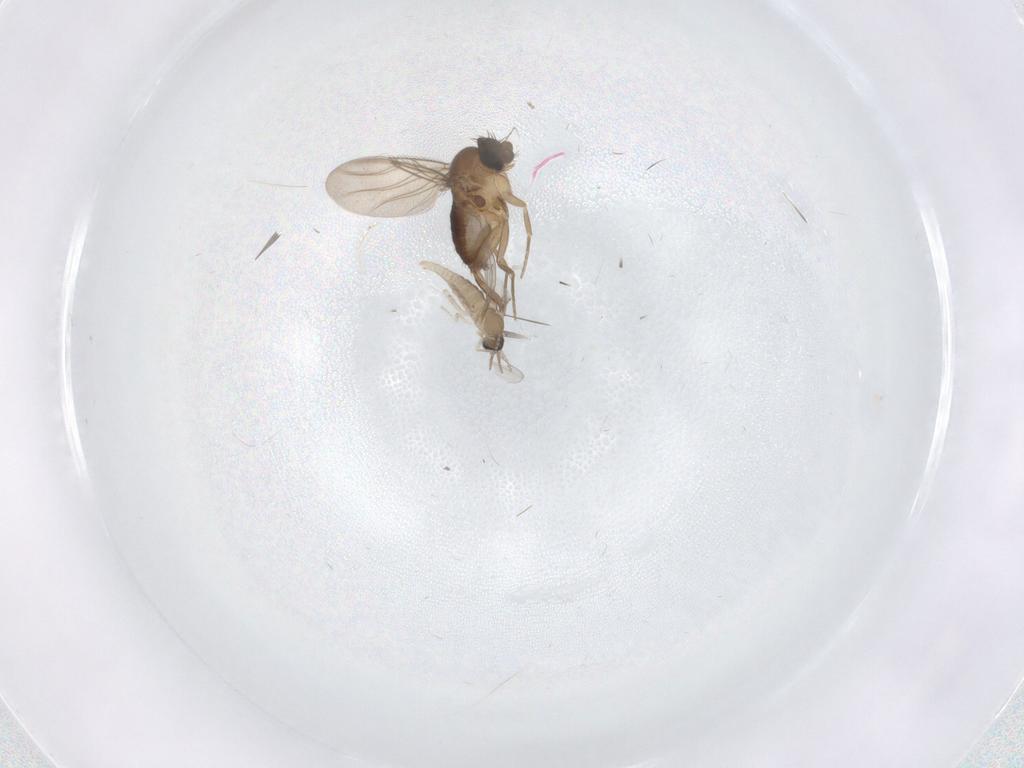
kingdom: Animalia
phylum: Arthropoda
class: Insecta
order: Diptera
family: Cecidomyiidae
